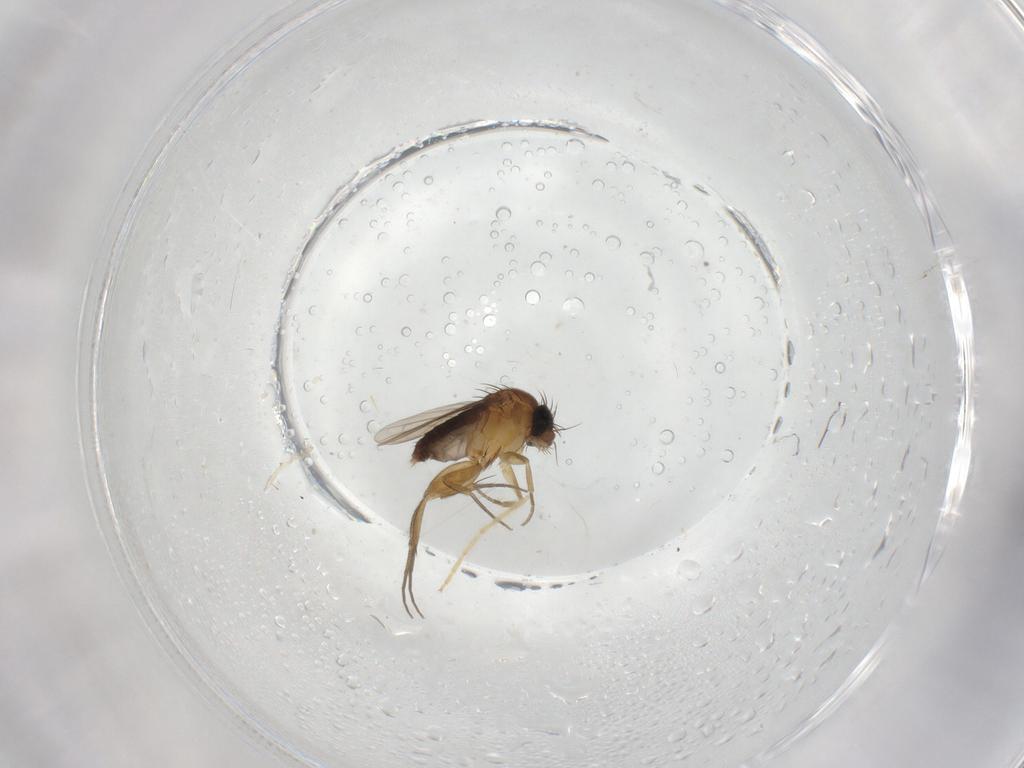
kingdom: Animalia
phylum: Arthropoda
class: Insecta
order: Diptera
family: Phoridae
